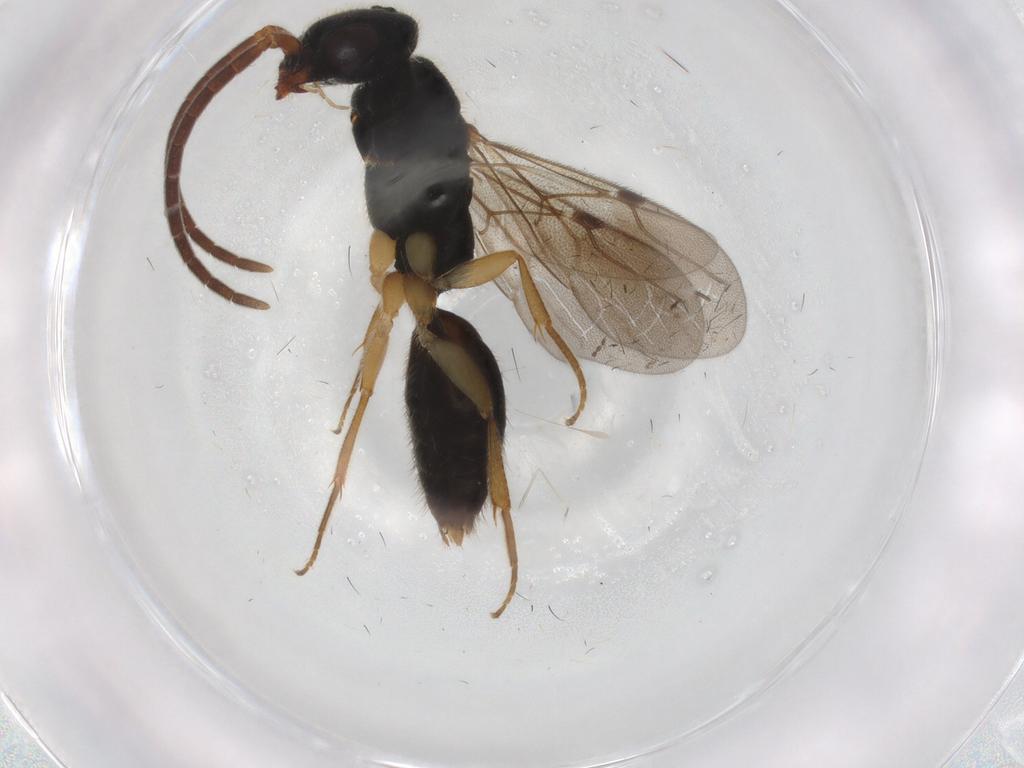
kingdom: Animalia
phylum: Arthropoda
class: Insecta
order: Hymenoptera
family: Bethylidae
